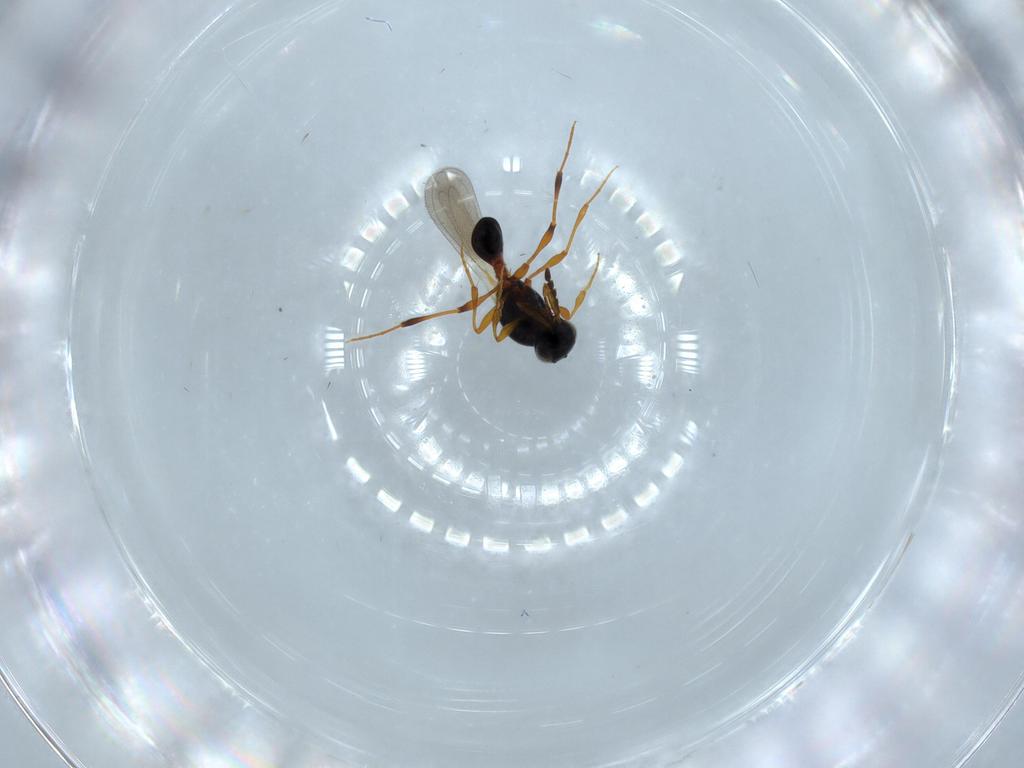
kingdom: Animalia
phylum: Arthropoda
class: Insecta
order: Hymenoptera
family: Platygastridae
